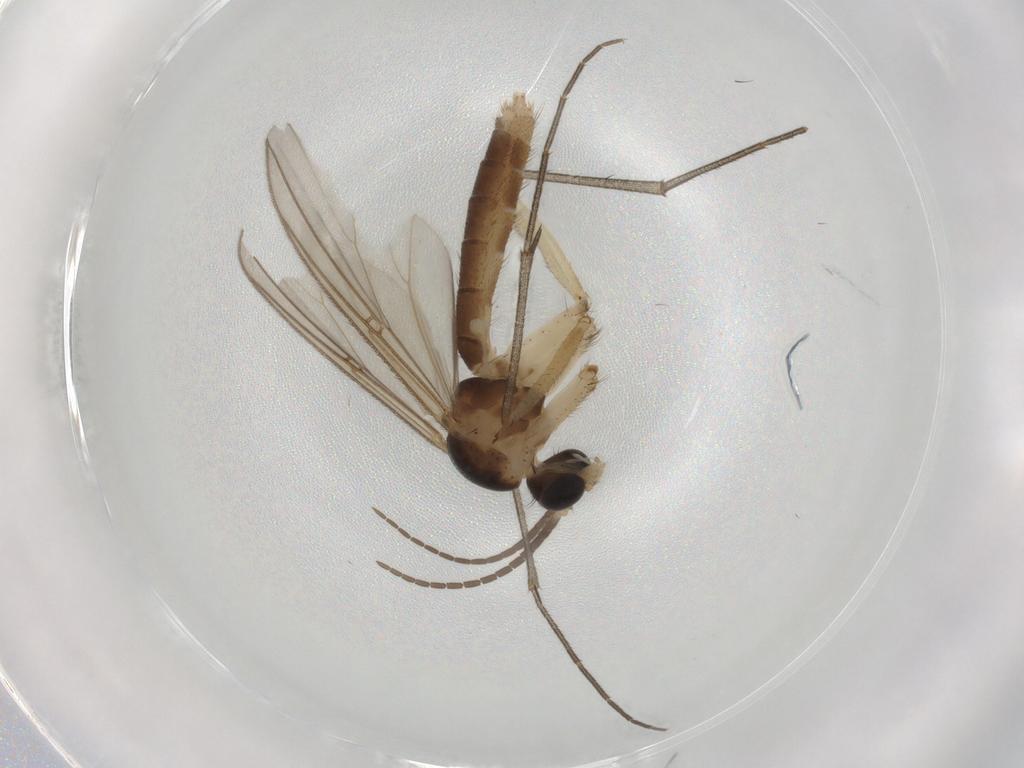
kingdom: Animalia
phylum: Arthropoda
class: Insecta
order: Diptera
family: Muscidae
